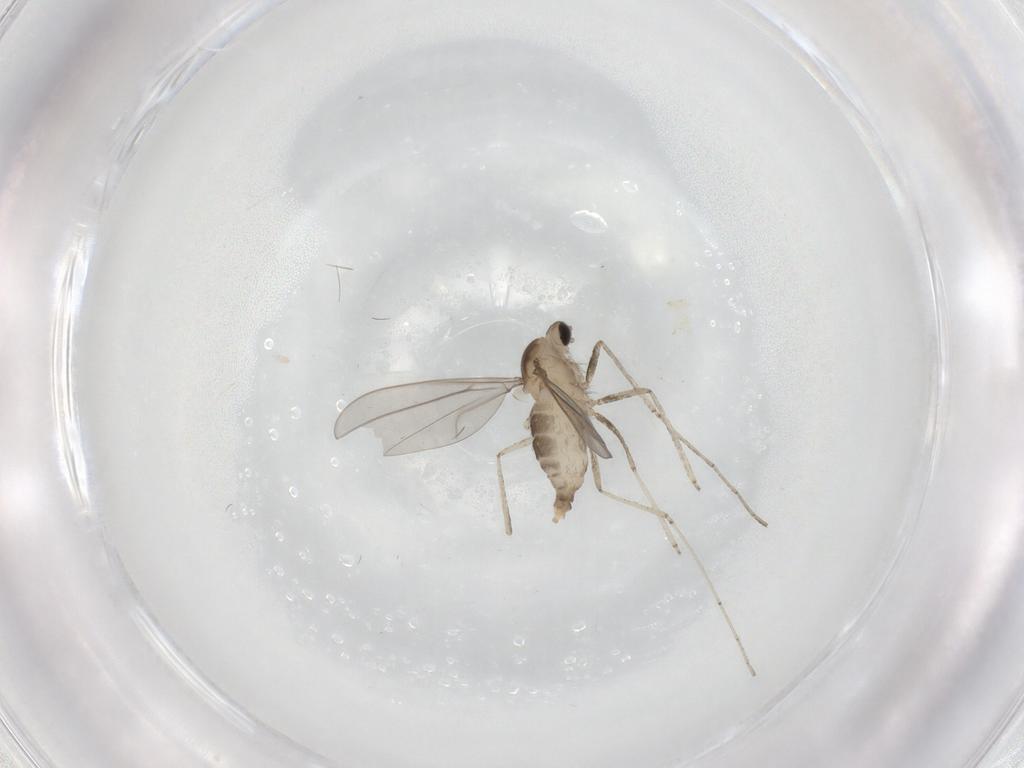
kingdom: Animalia
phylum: Arthropoda
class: Insecta
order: Diptera
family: Cecidomyiidae
